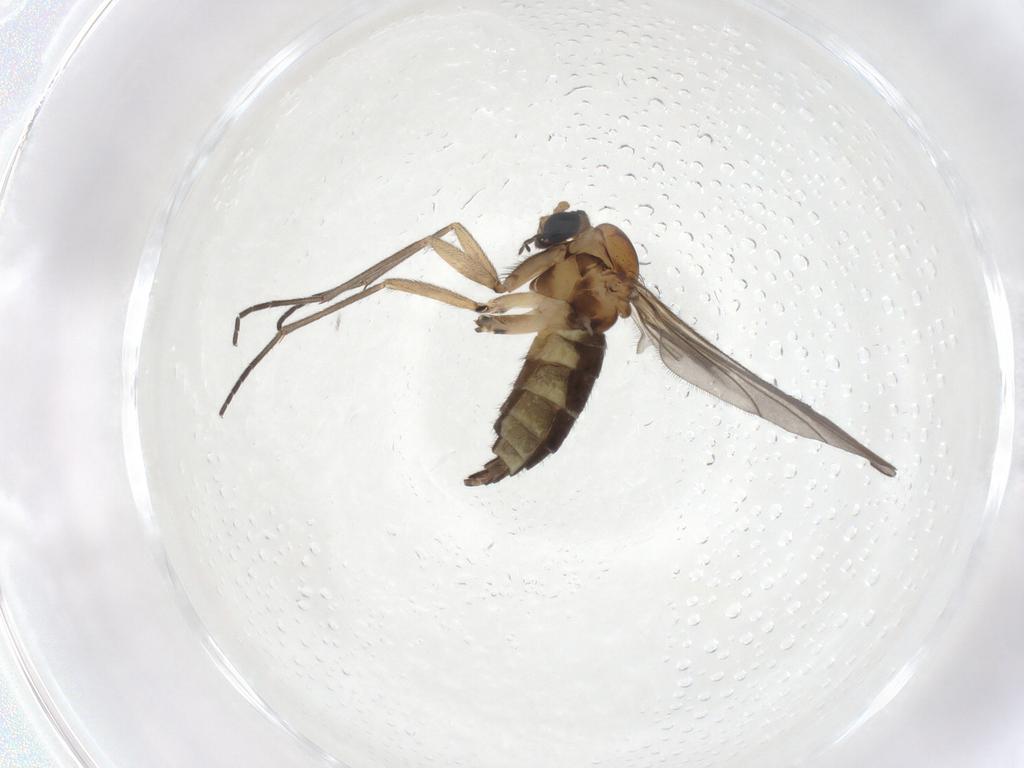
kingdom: Animalia
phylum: Arthropoda
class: Insecta
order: Diptera
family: Sciaridae
